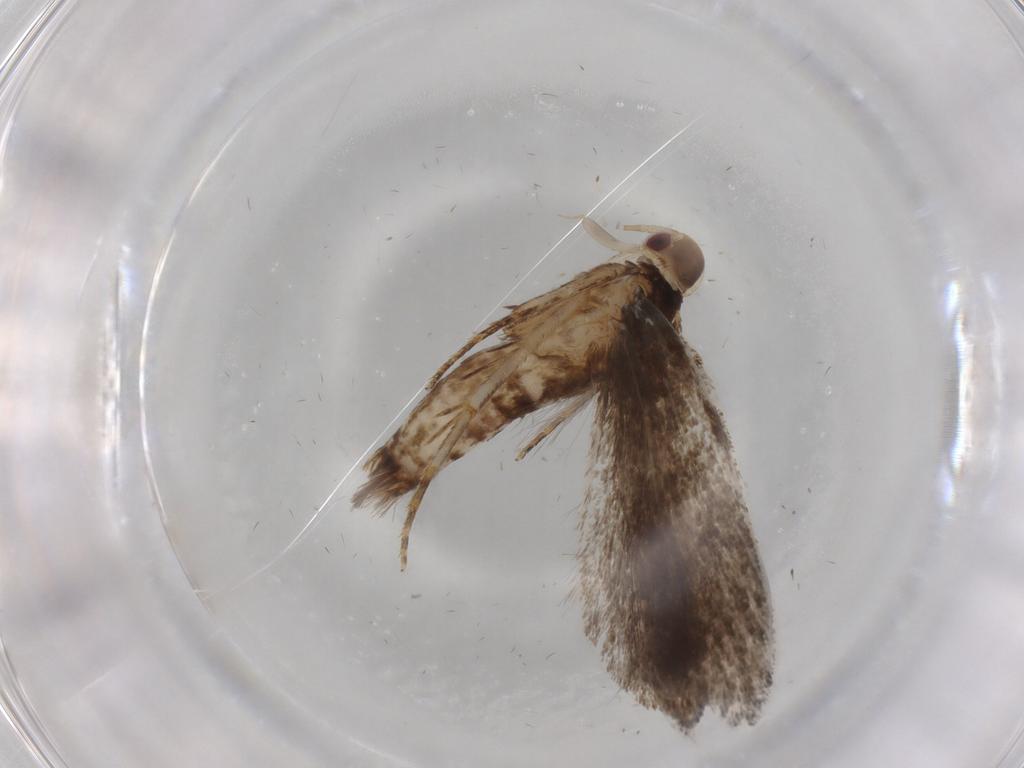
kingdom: Animalia
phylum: Arthropoda
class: Insecta
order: Lepidoptera
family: Gelechiidae
